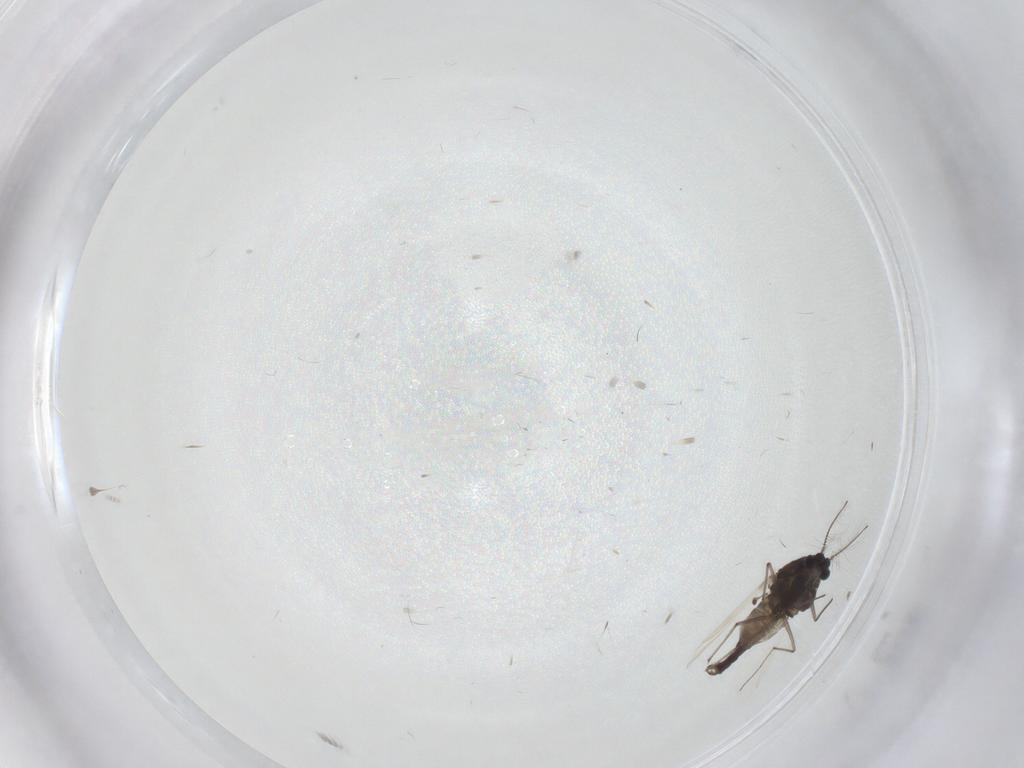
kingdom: Animalia
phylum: Arthropoda
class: Insecta
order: Diptera
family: Chironomidae
